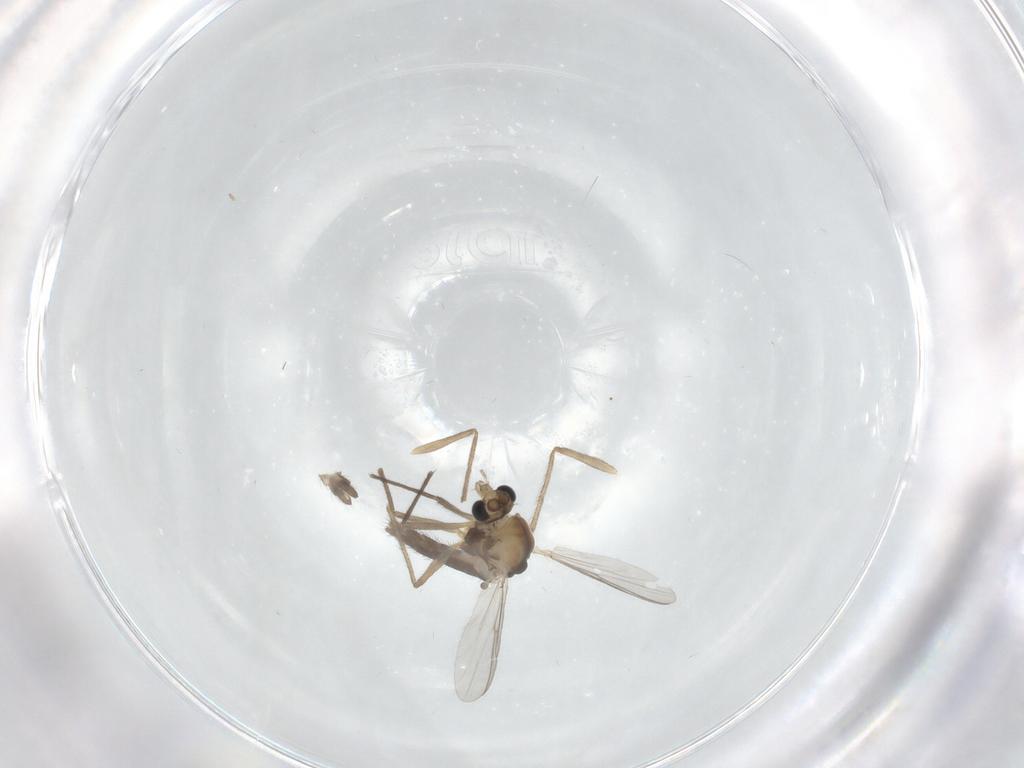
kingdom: Animalia
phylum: Arthropoda
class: Insecta
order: Diptera
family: Chironomidae
